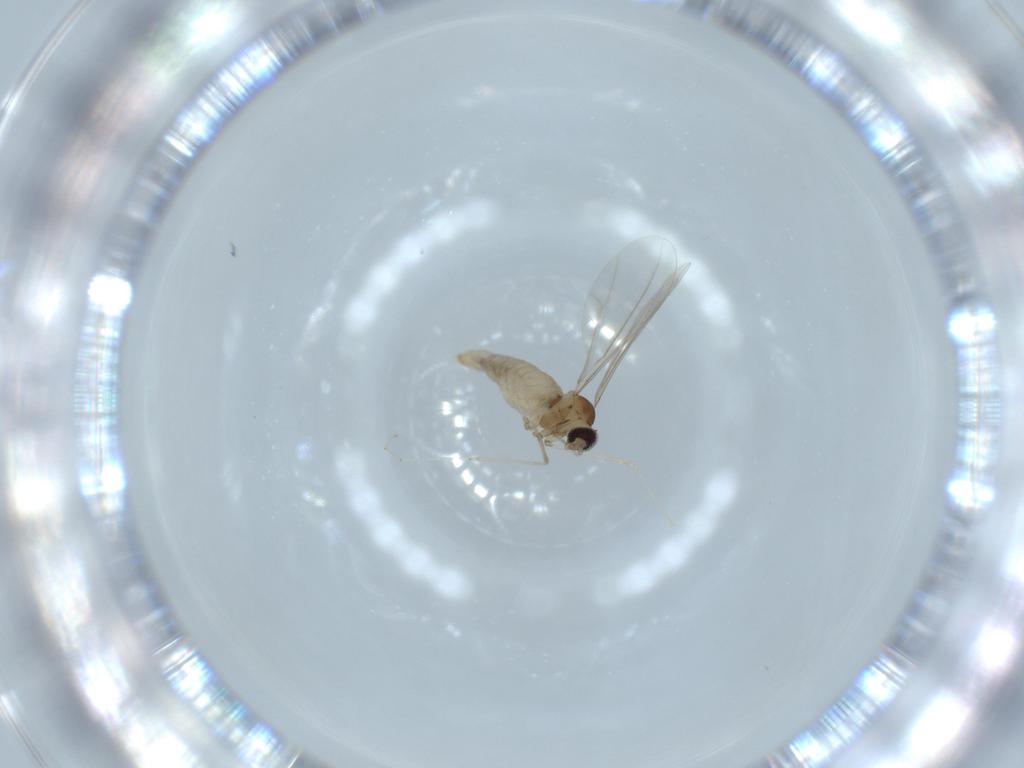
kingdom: Animalia
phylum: Arthropoda
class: Insecta
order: Diptera
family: Cecidomyiidae
